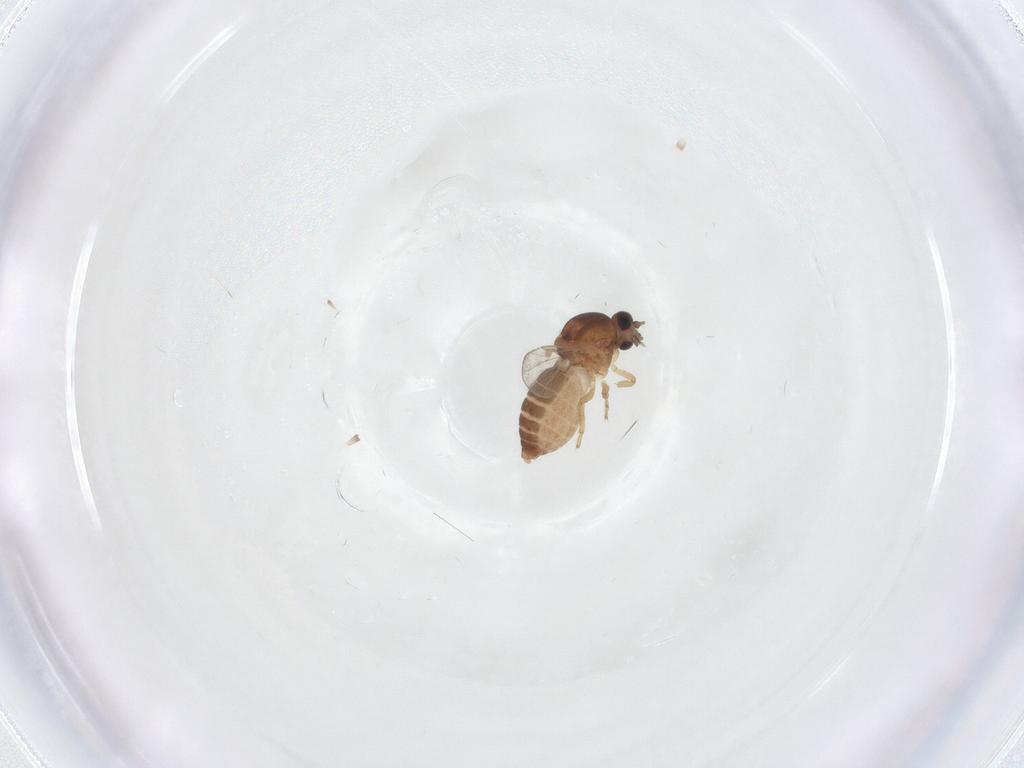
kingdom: Animalia
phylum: Arthropoda
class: Insecta
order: Diptera
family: Ceratopogonidae
